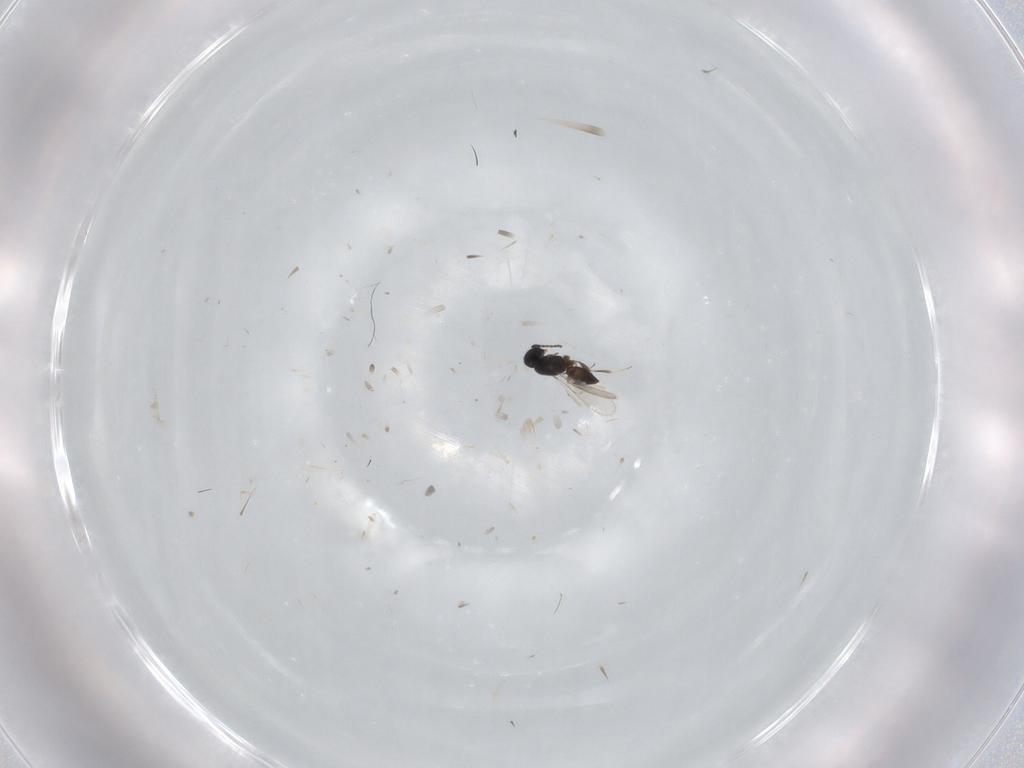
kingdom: Animalia
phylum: Arthropoda
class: Insecta
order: Hymenoptera
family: Scelionidae
